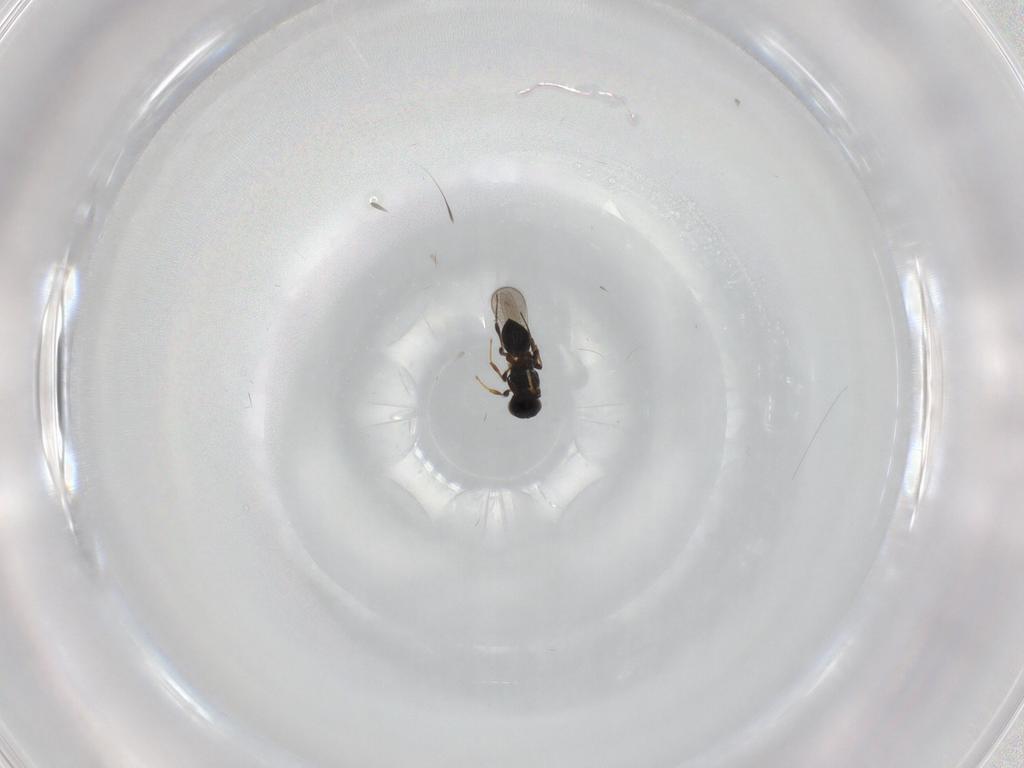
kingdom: Animalia
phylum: Arthropoda
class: Insecta
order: Hymenoptera
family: Platygastridae
